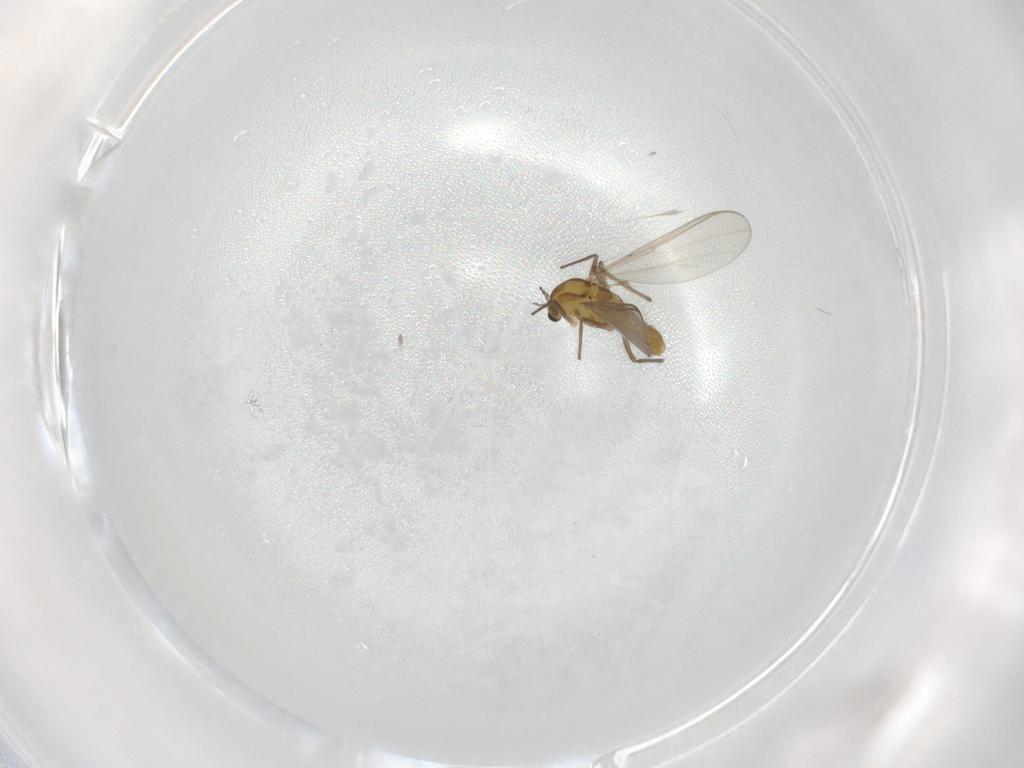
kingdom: Animalia
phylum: Arthropoda
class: Insecta
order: Diptera
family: Chironomidae
